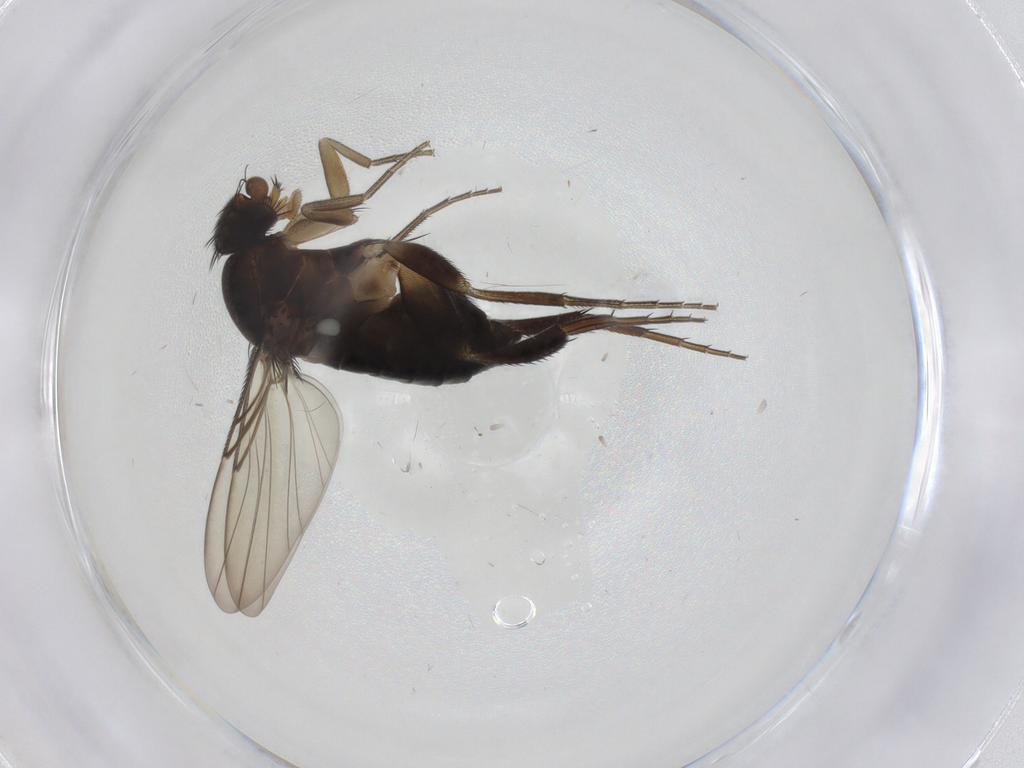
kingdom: Animalia
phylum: Arthropoda
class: Insecta
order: Diptera
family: Phoridae
